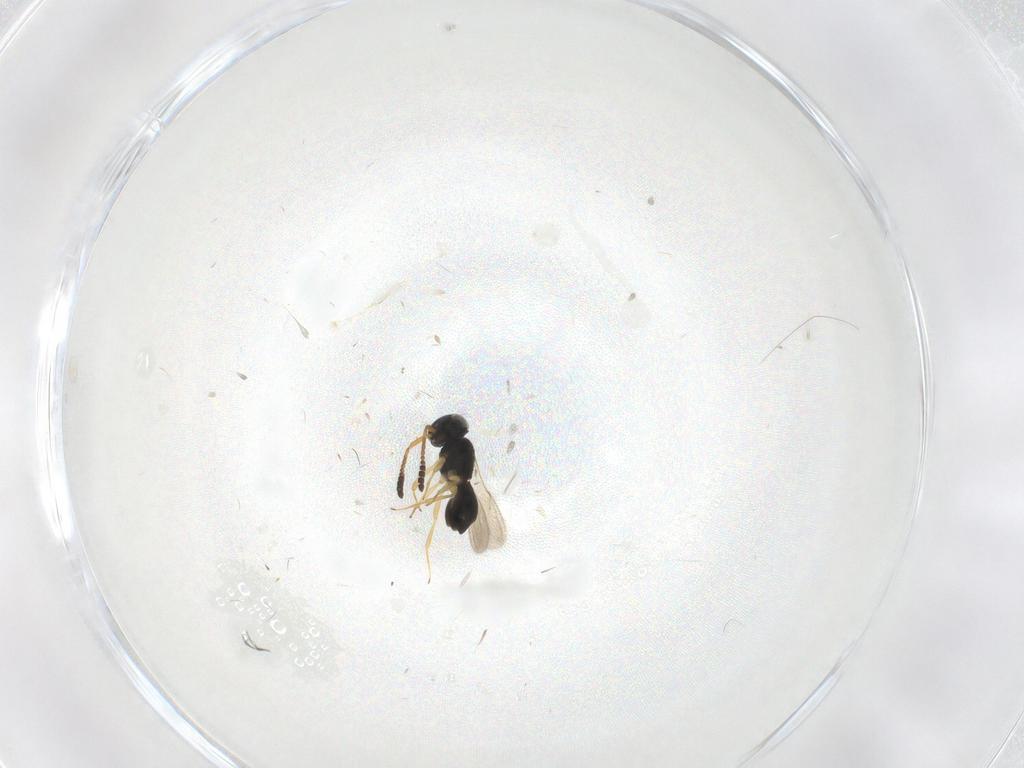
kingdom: Animalia
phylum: Arthropoda
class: Insecta
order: Hymenoptera
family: Scelionidae
